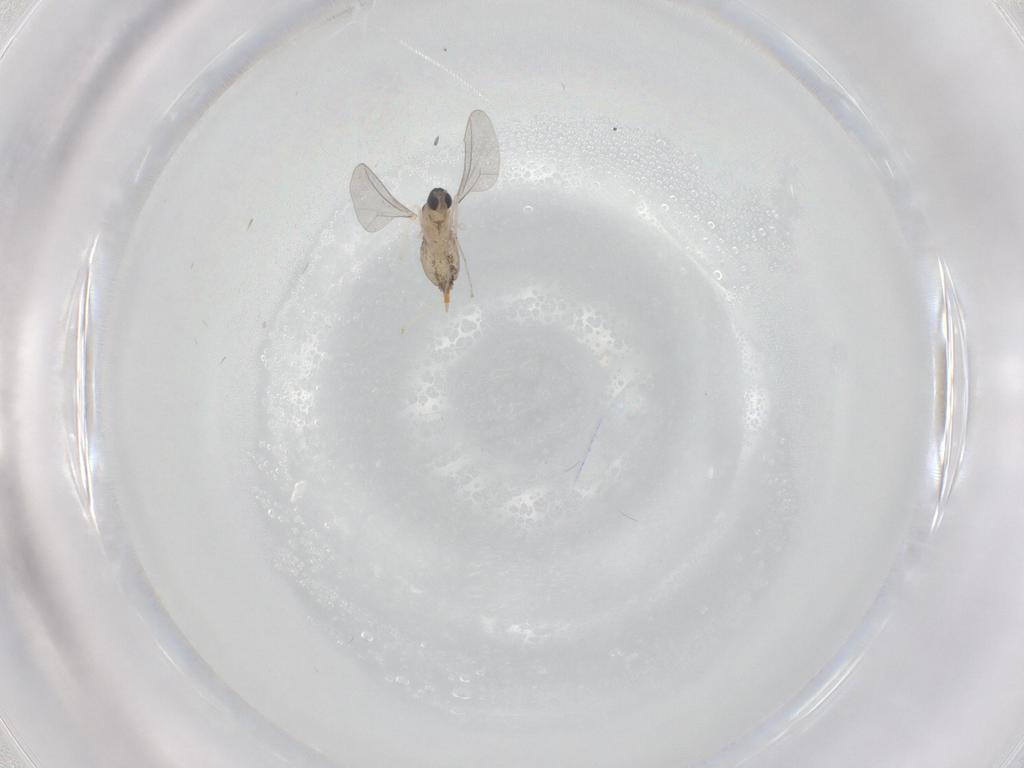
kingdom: Animalia
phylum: Arthropoda
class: Insecta
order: Diptera
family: Cecidomyiidae
